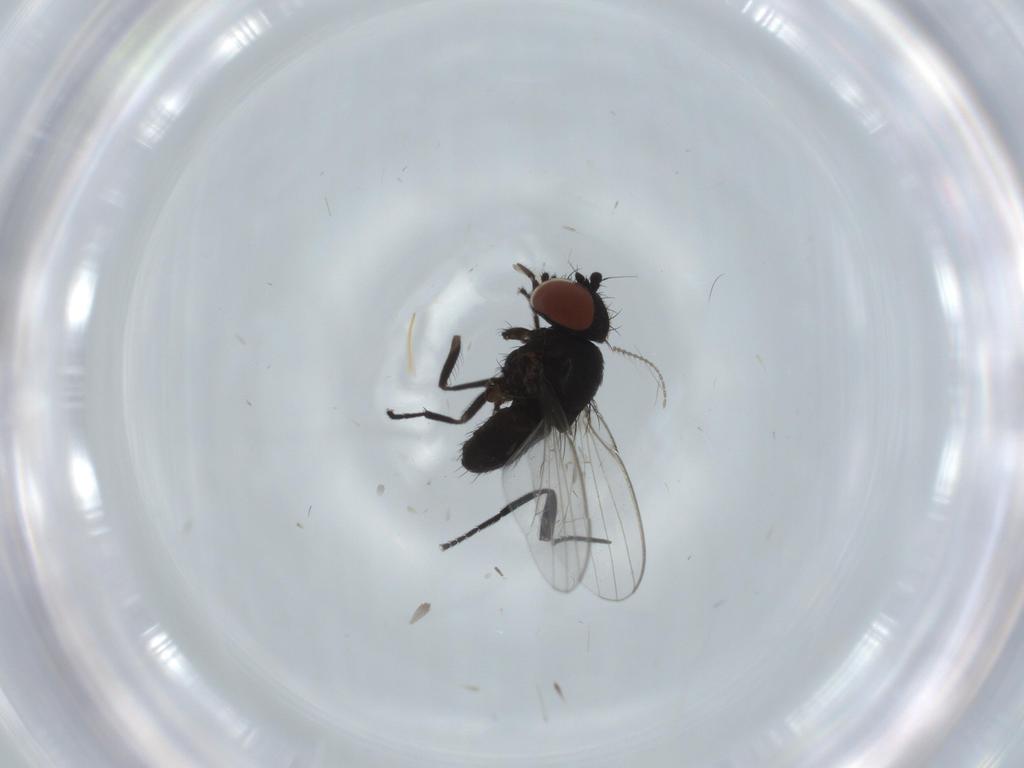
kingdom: Animalia
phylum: Arthropoda
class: Insecta
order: Diptera
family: Milichiidae
